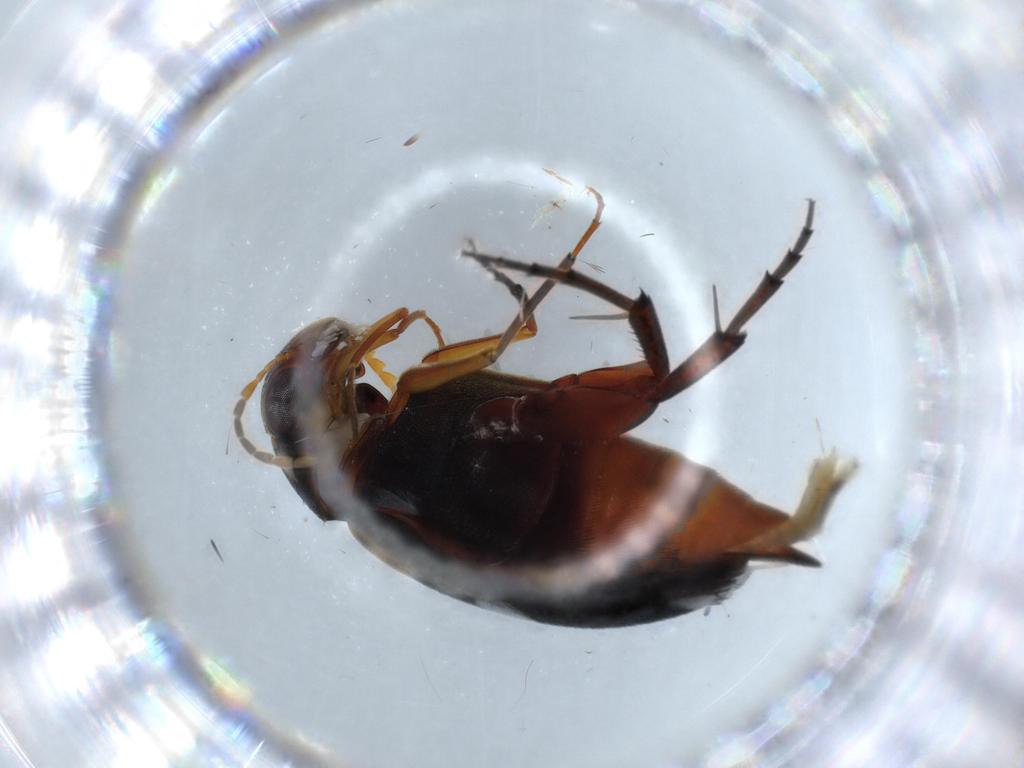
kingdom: Animalia
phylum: Arthropoda
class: Insecta
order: Coleoptera
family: Mordellidae
